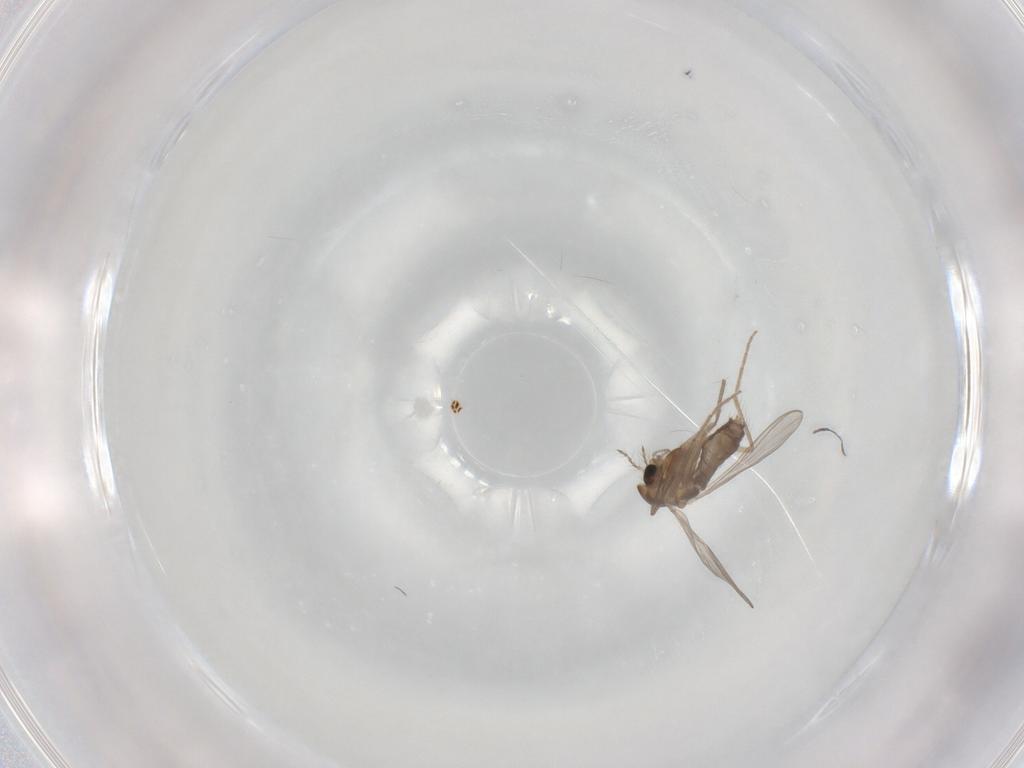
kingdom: Animalia
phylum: Arthropoda
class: Insecta
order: Diptera
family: Chironomidae
